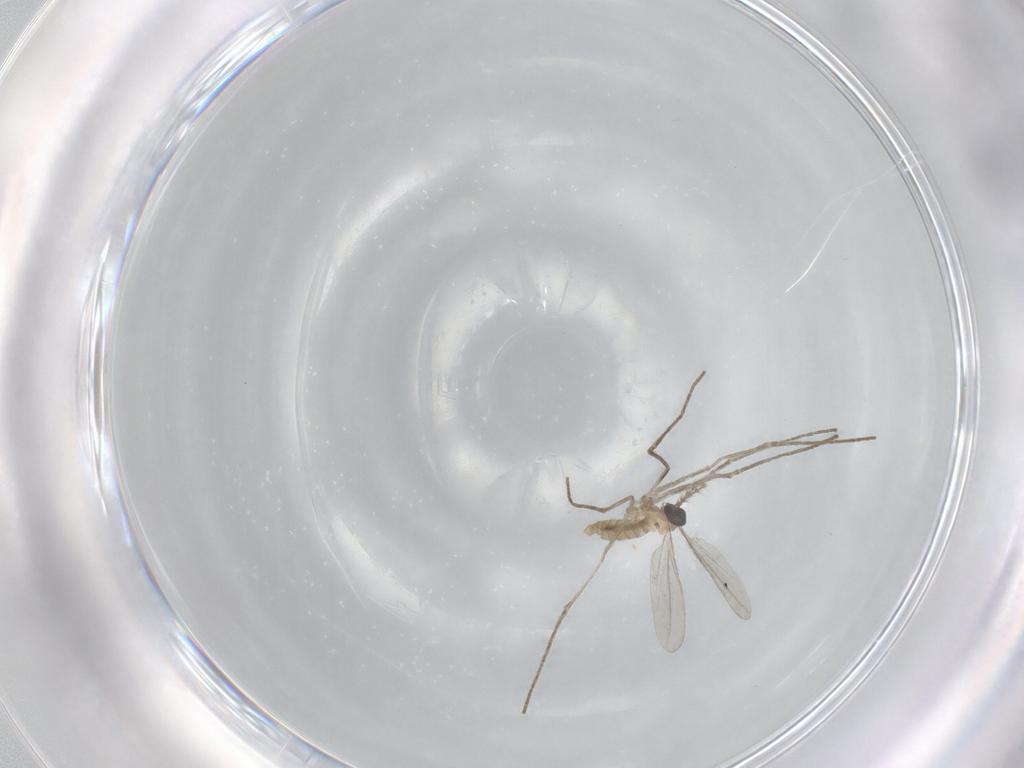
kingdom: Animalia
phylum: Arthropoda
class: Insecta
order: Diptera
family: Cecidomyiidae
